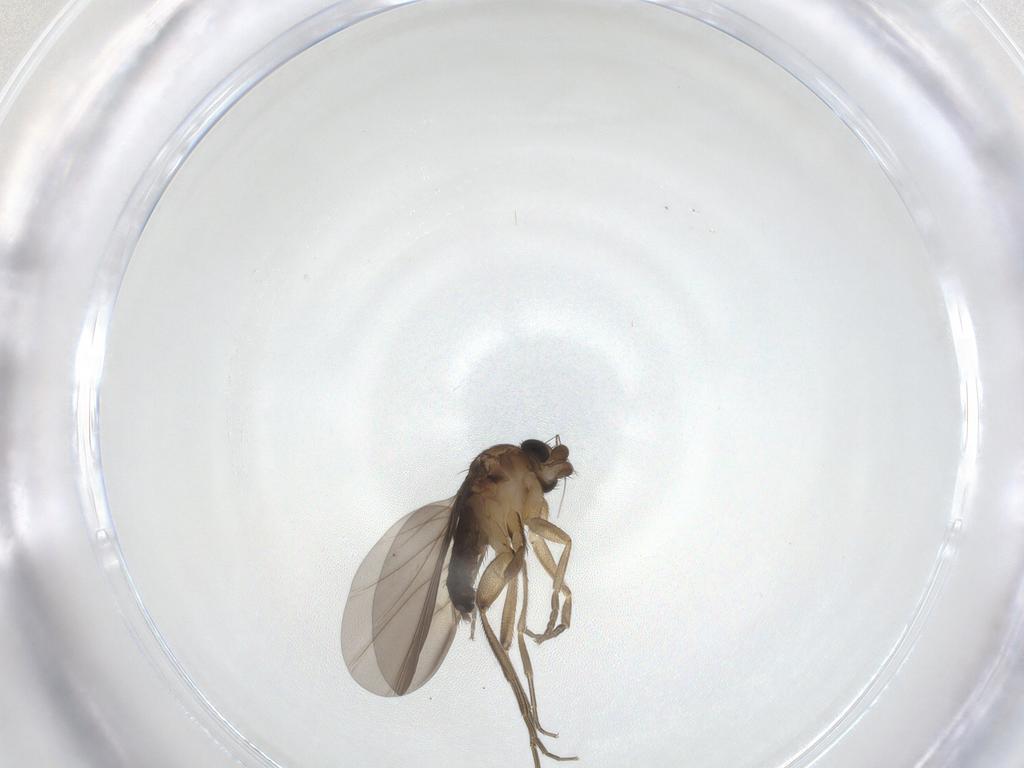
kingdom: Animalia
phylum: Arthropoda
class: Insecta
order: Diptera
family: Phoridae
